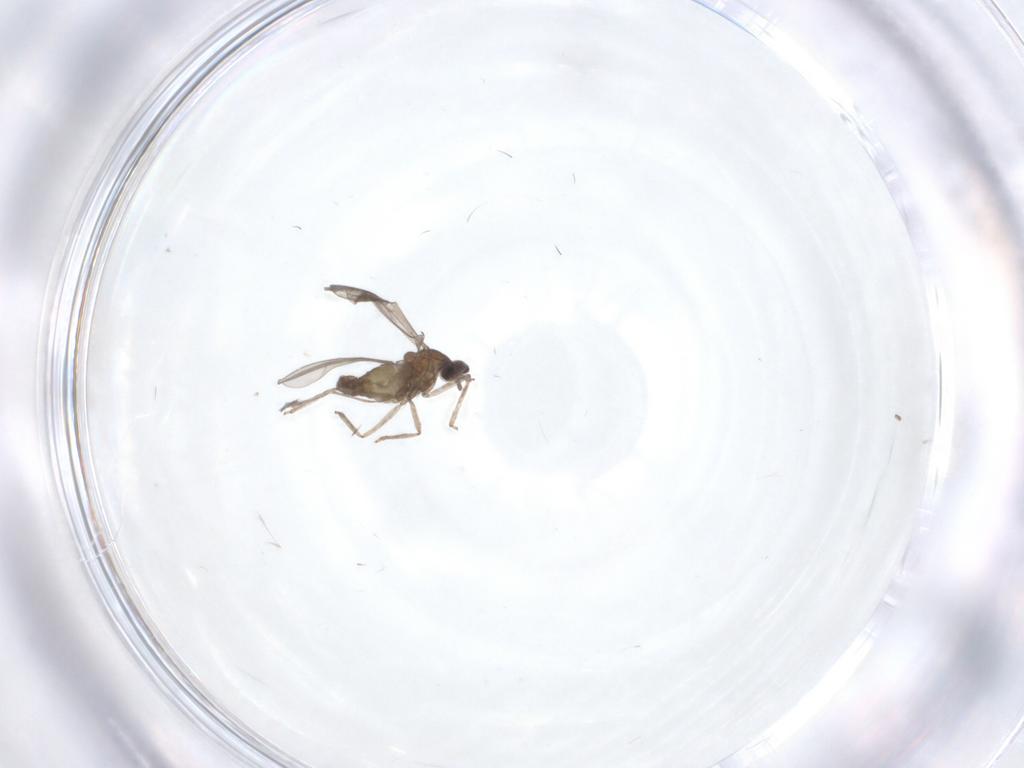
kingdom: Animalia
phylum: Arthropoda
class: Insecta
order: Diptera
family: Cecidomyiidae
